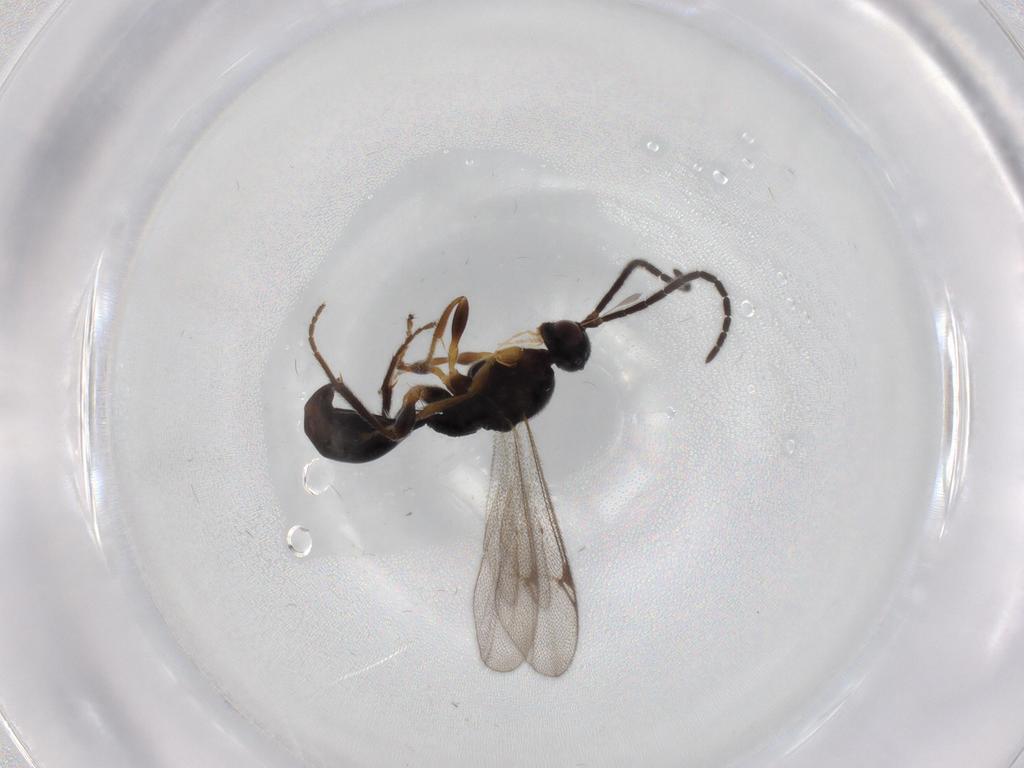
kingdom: Animalia
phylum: Arthropoda
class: Insecta
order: Hymenoptera
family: Proctotrupidae
